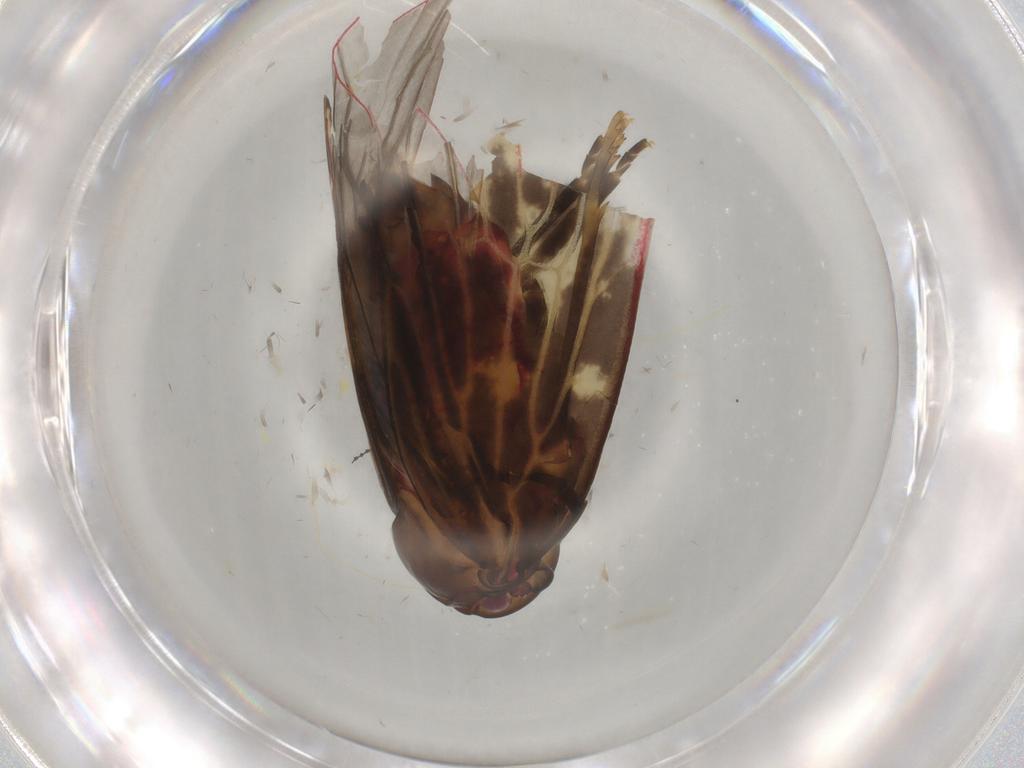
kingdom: Animalia
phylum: Arthropoda
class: Insecta
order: Hemiptera
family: Achilidae
